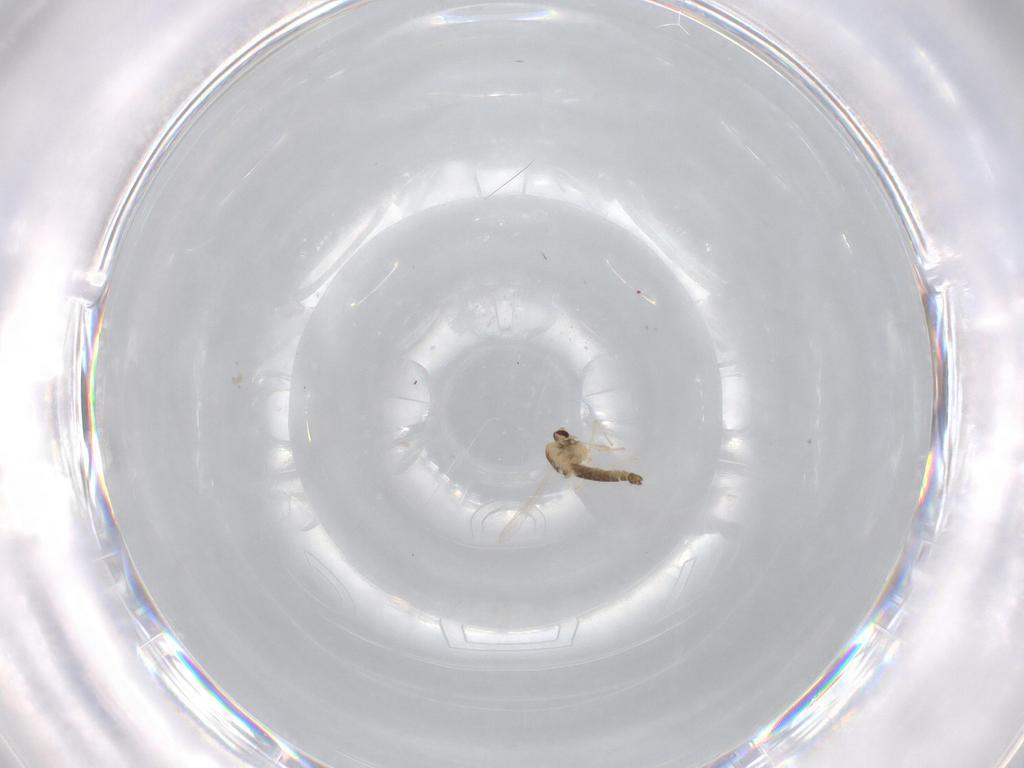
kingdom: Animalia
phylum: Arthropoda
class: Insecta
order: Diptera
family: Chironomidae
